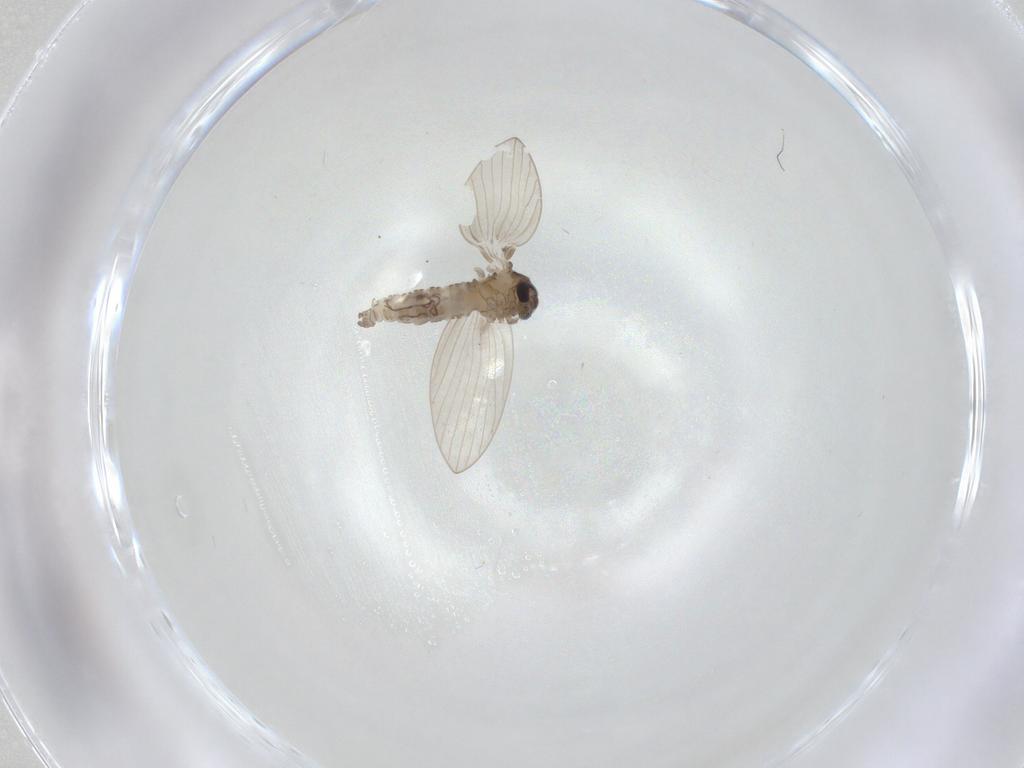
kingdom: Animalia
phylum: Arthropoda
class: Insecta
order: Diptera
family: Psychodidae
